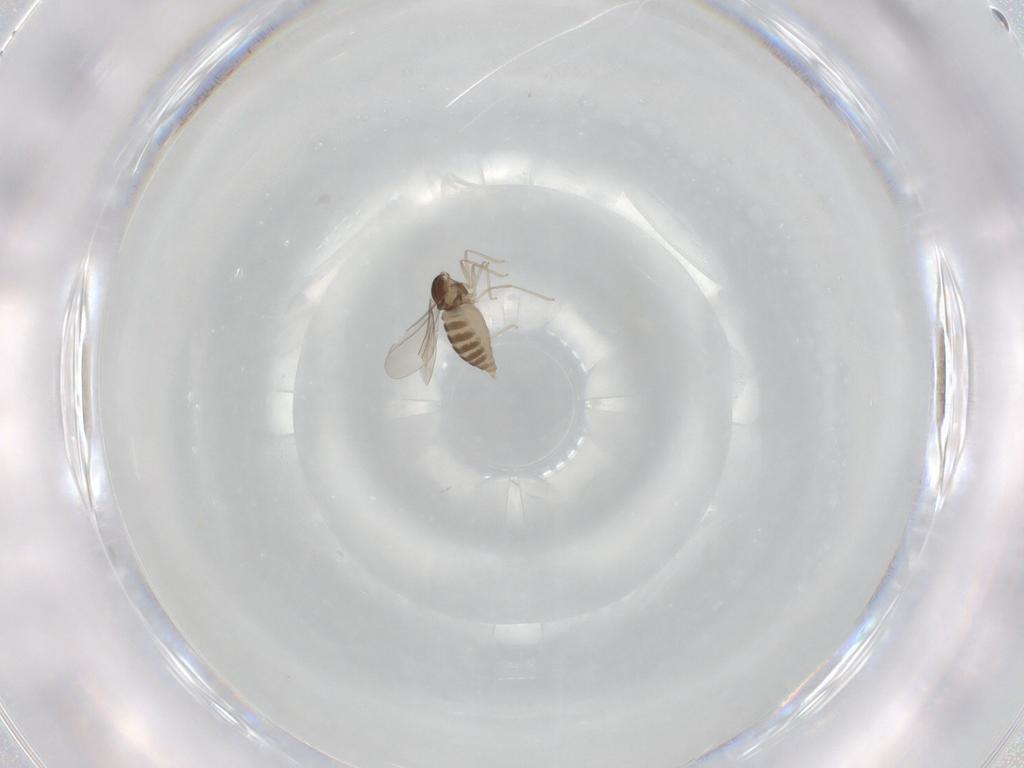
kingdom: Animalia
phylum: Arthropoda
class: Insecta
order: Diptera
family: Cecidomyiidae
